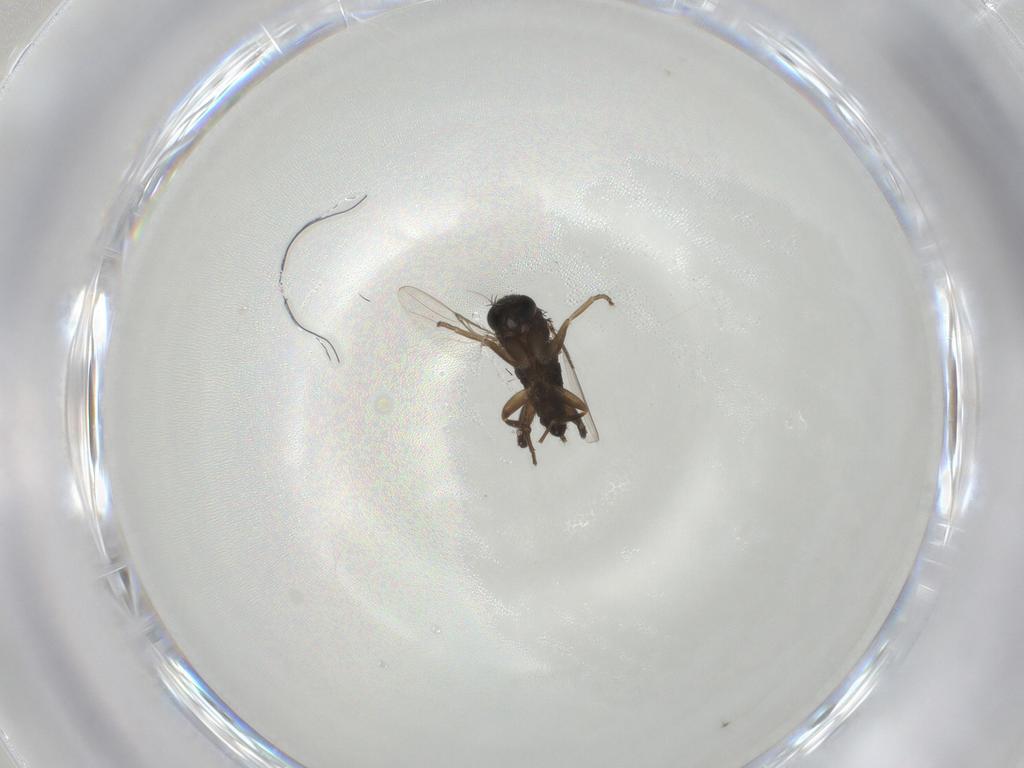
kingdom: Animalia
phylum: Arthropoda
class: Insecta
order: Diptera
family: Phoridae
